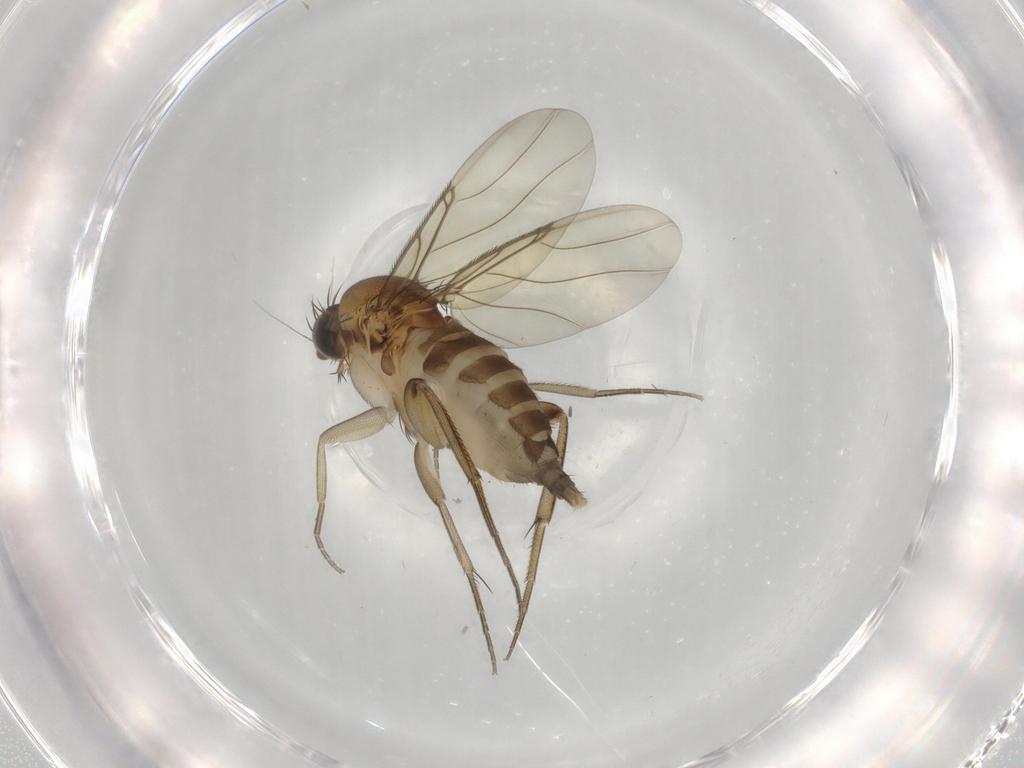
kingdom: Animalia
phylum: Arthropoda
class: Insecta
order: Diptera
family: Phoridae
